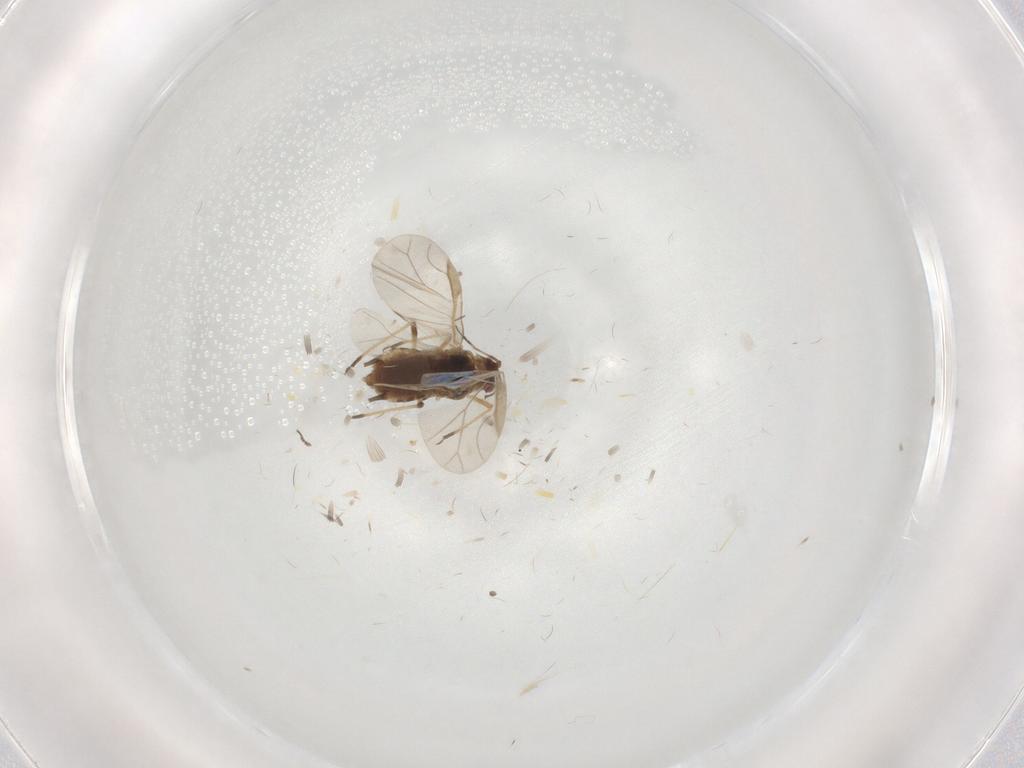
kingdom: Animalia
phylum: Arthropoda
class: Insecta
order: Hemiptera
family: Aphididae
